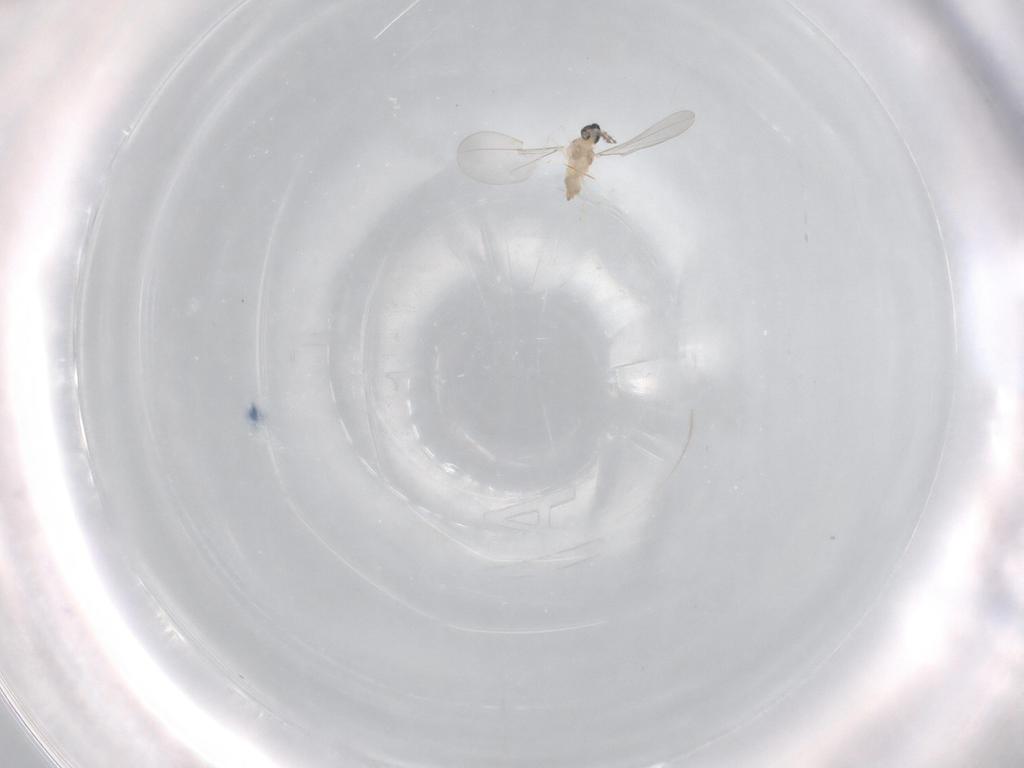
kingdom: Animalia
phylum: Arthropoda
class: Insecta
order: Diptera
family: Cecidomyiidae
